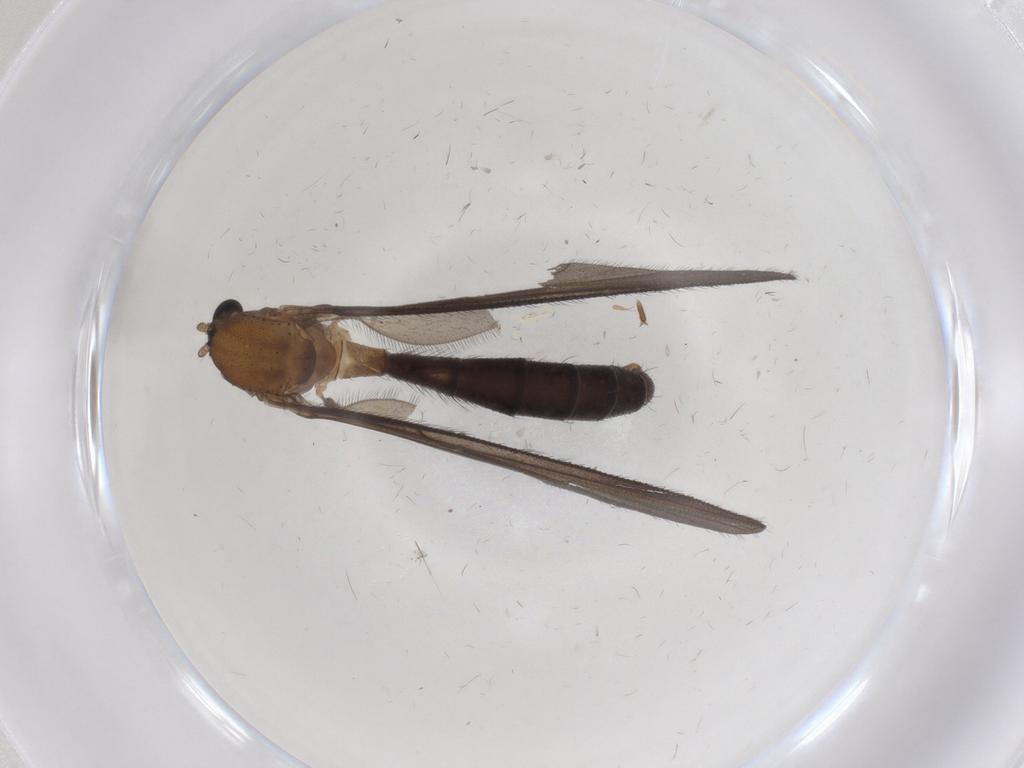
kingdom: Animalia
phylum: Arthropoda
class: Insecta
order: Diptera
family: Ditomyiidae
